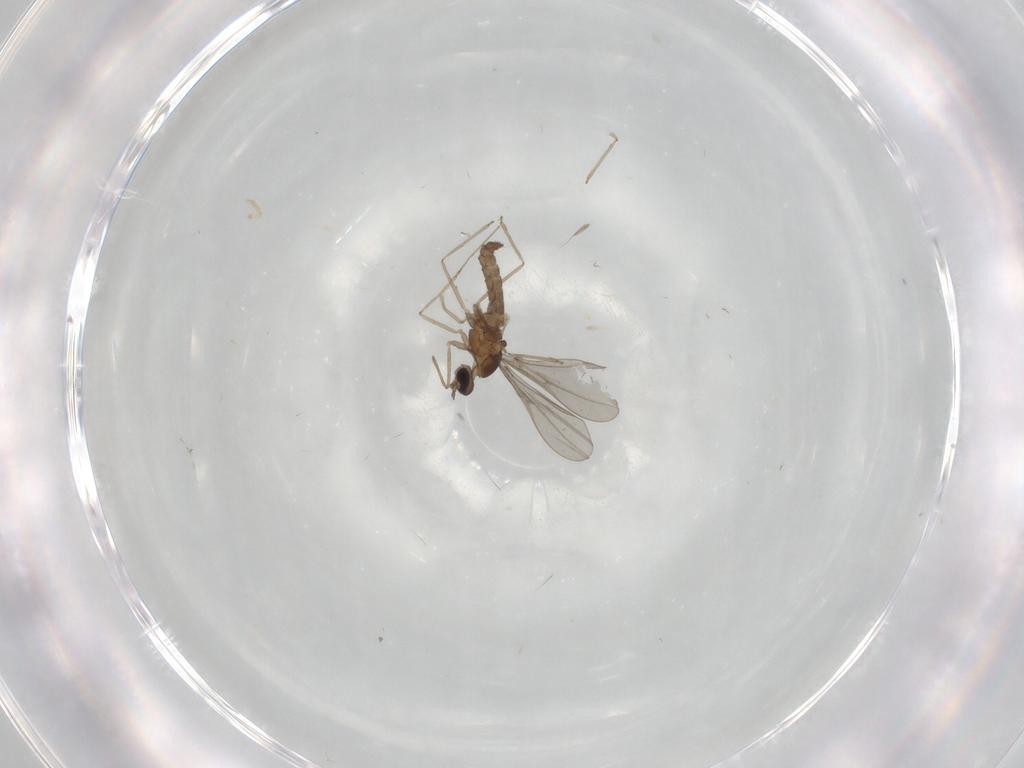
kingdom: Animalia
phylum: Arthropoda
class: Insecta
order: Diptera
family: Cecidomyiidae
